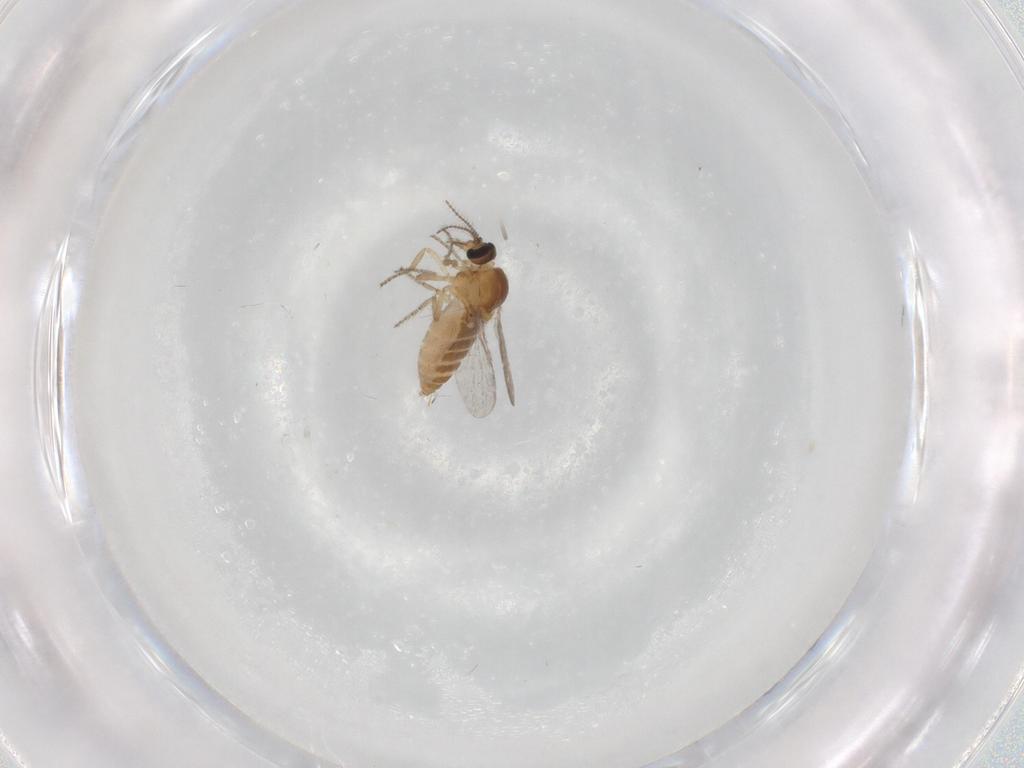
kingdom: Animalia
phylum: Arthropoda
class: Insecta
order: Diptera
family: Ceratopogonidae
